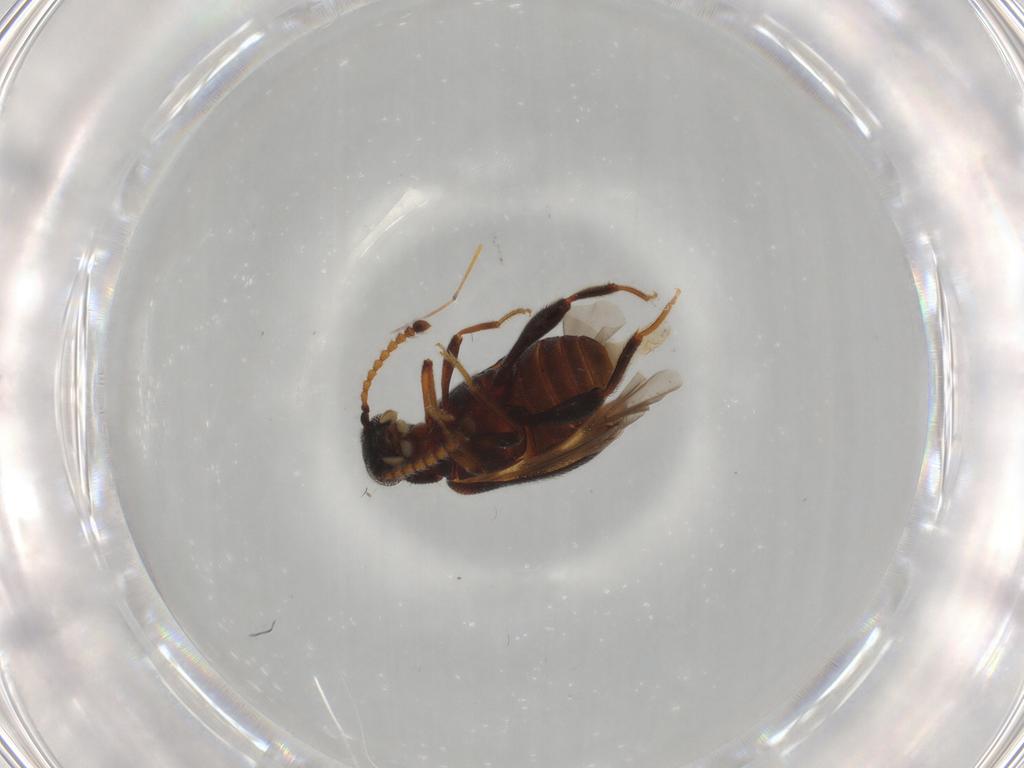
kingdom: Animalia
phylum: Arthropoda
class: Insecta
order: Coleoptera
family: Aderidae
